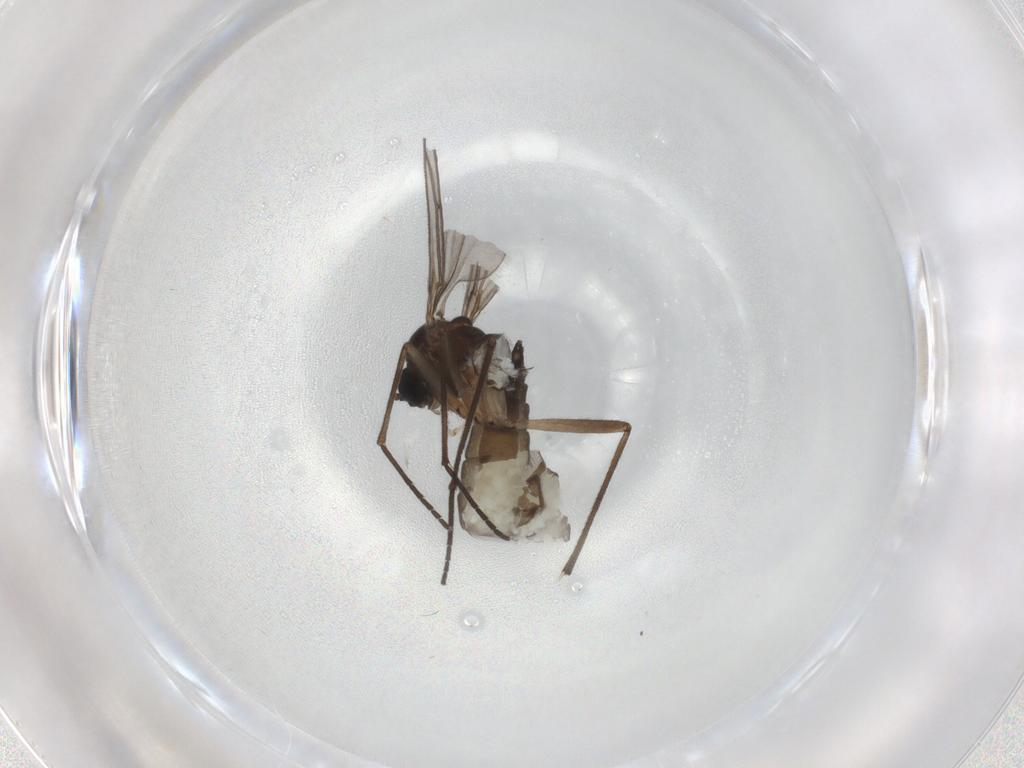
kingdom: Animalia
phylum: Arthropoda
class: Insecta
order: Diptera
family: Sciaridae
